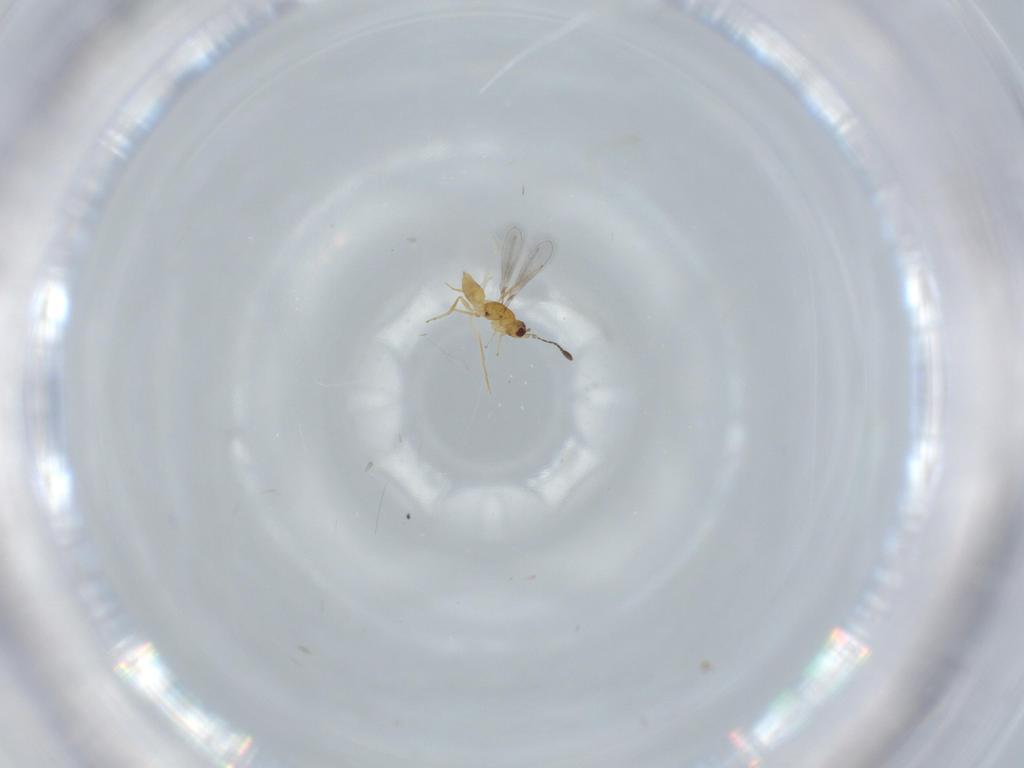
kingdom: Animalia
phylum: Arthropoda
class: Insecta
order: Hymenoptera
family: Mymaridae
